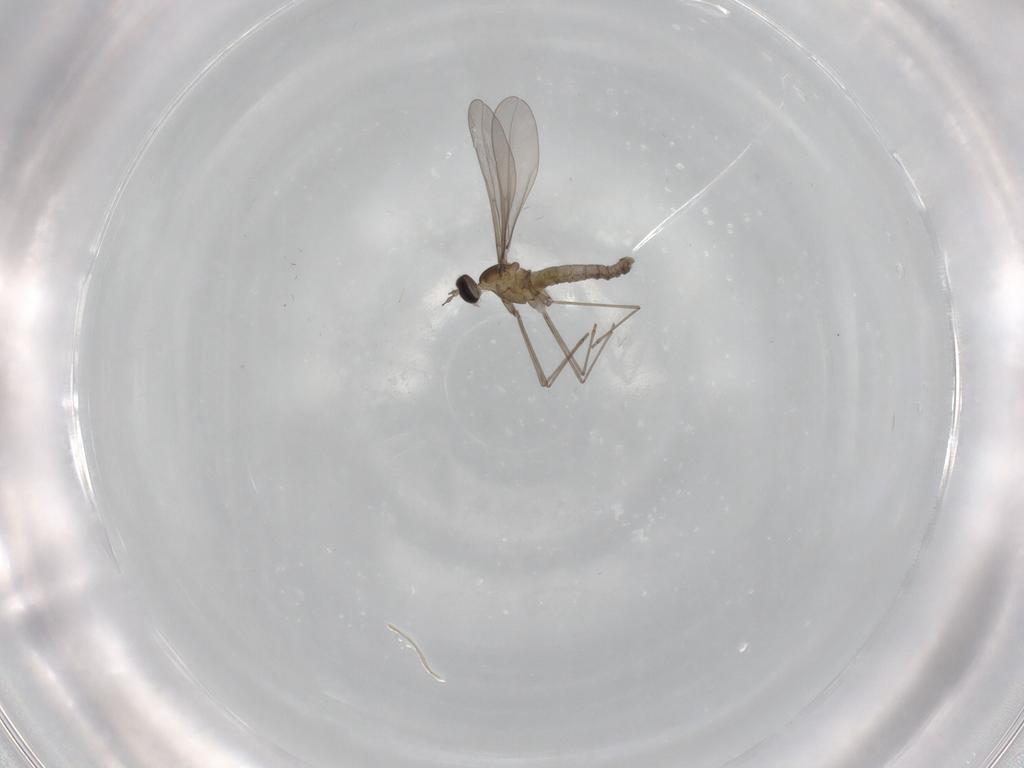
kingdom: Animalia
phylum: Arthropoda
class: Insecta
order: Diptera
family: Cecidomyiidae
